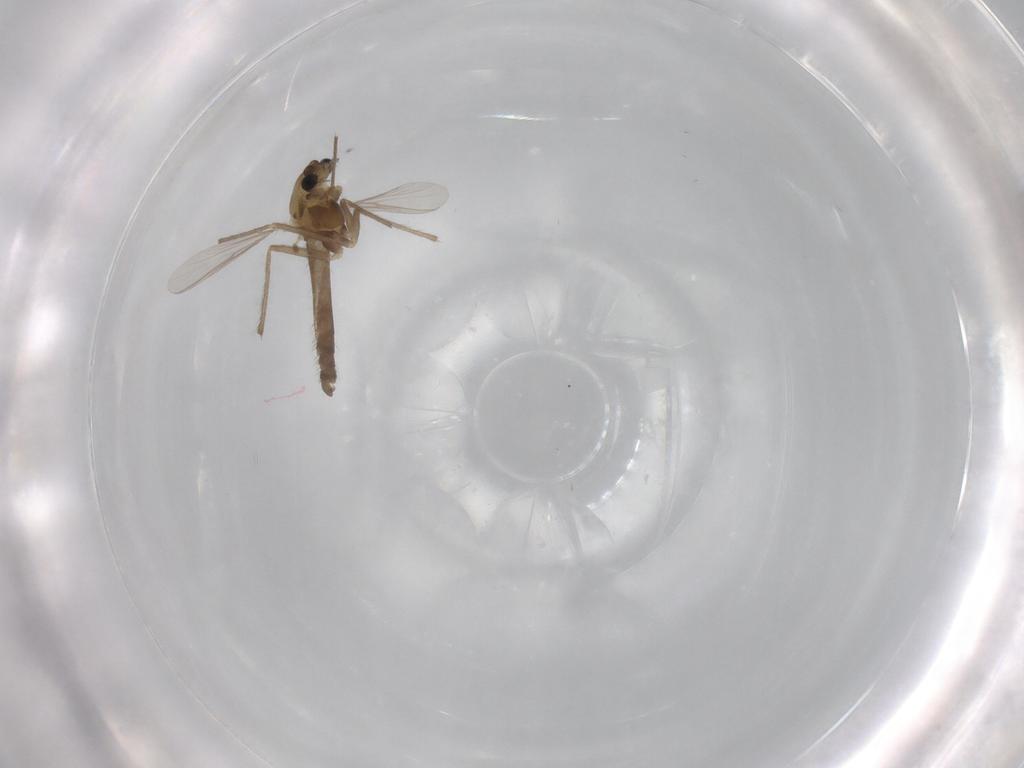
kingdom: Animalia
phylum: Arthropoda
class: Insecta
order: Diptera
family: Chironomidae
